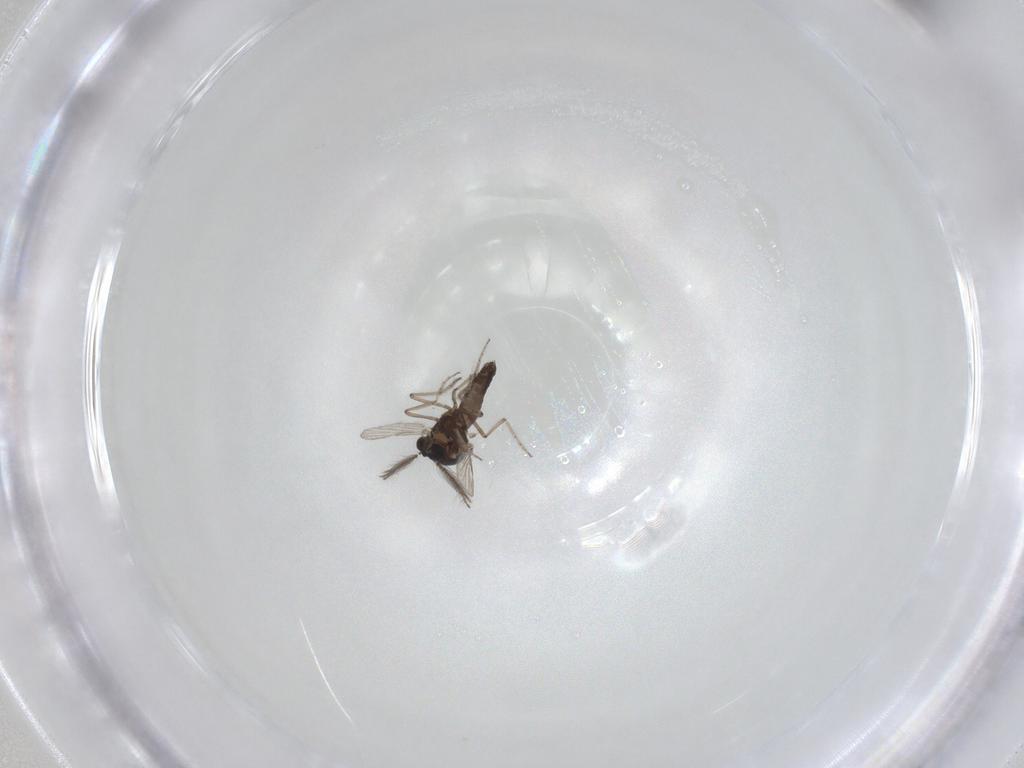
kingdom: Animalia
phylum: Arthropoda
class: Insecta
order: Diptera
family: Ceratopogonidae
